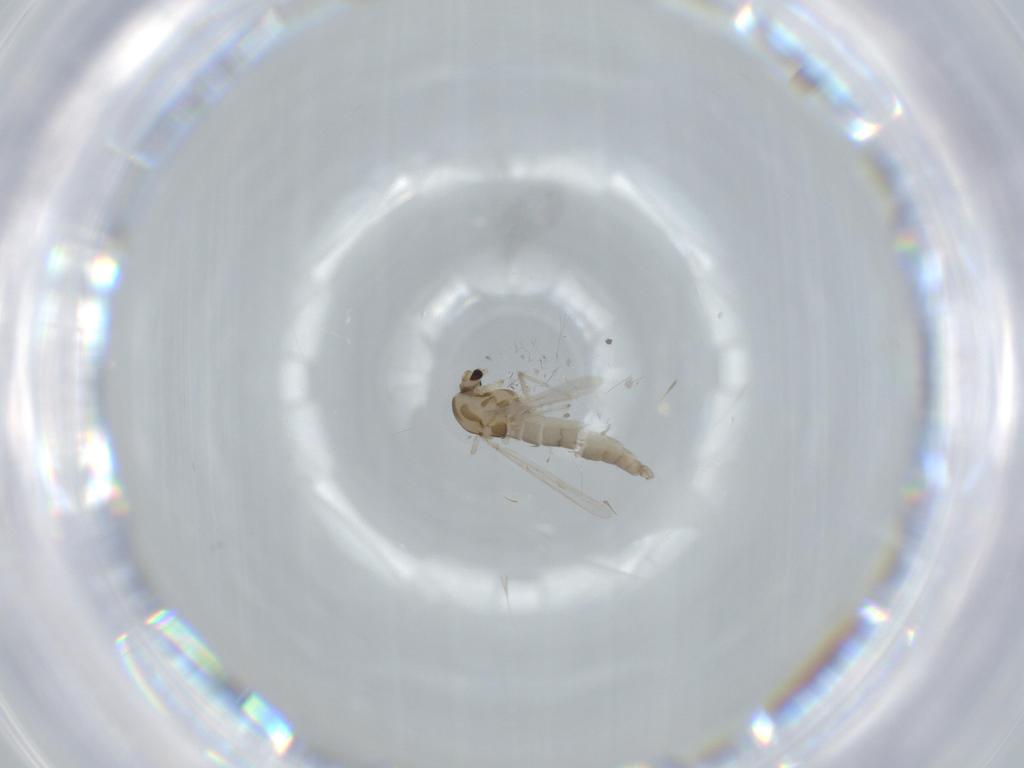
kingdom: Animalia
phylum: Arthropoda
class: Insecta
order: Diptera
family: Chironomidae
